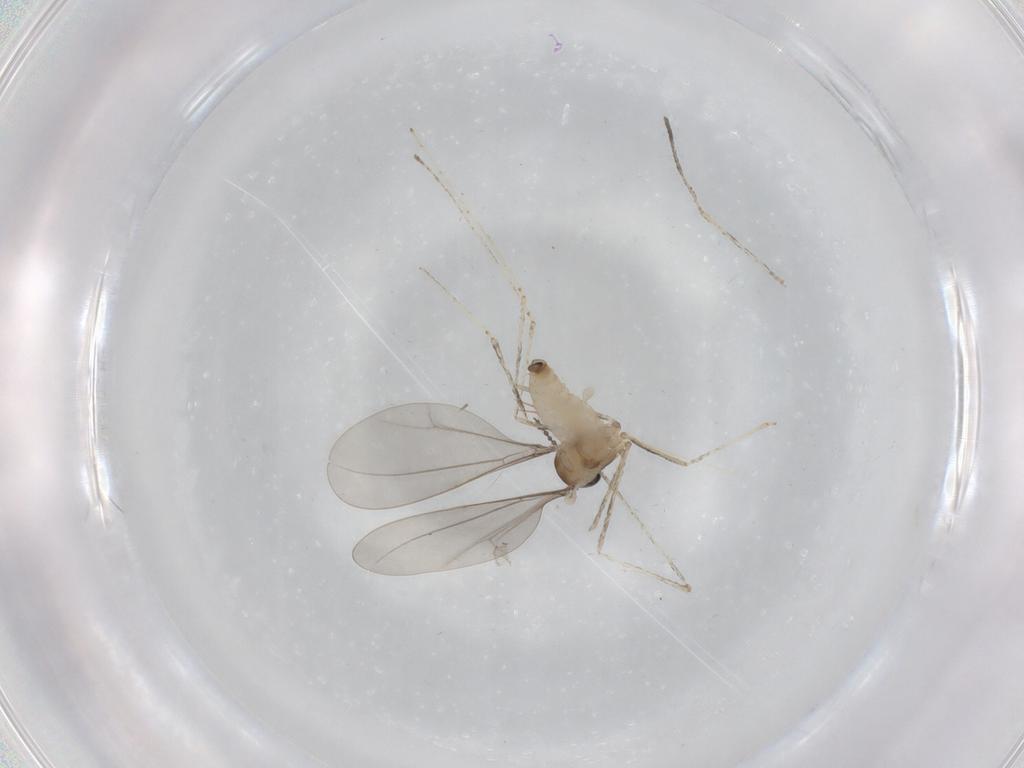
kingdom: Animalia
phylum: Arthropoda
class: Insecta
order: Diptera
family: Cecidomyiidae
